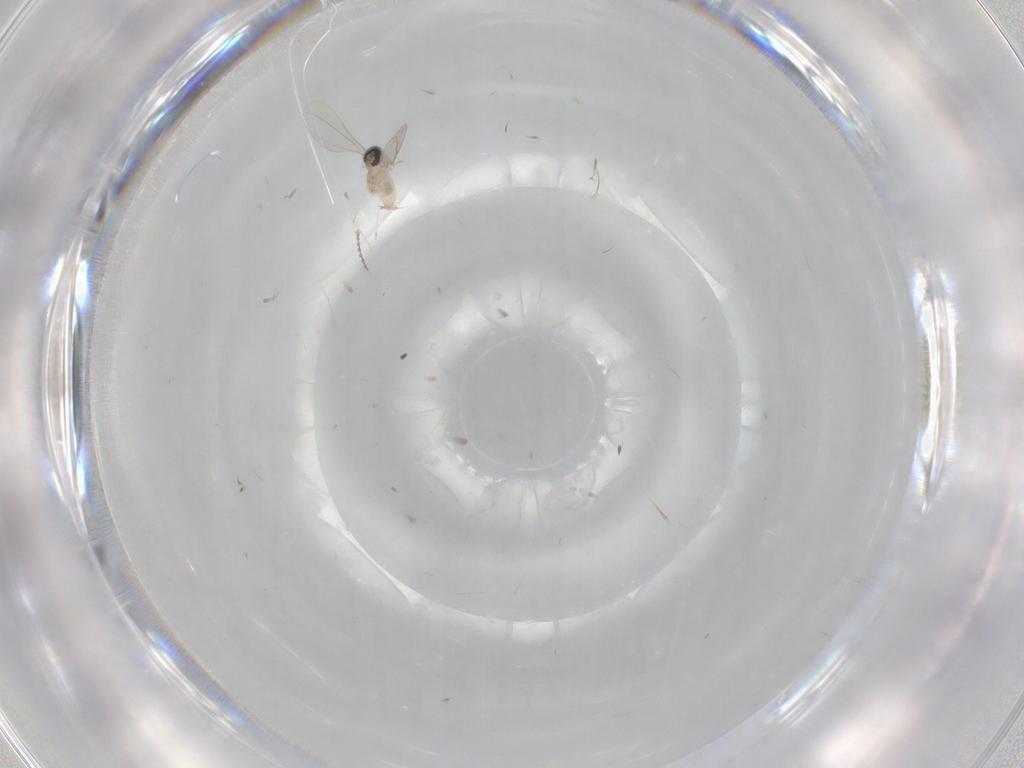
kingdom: Animalia
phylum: Arthropoda
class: Insecta
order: Diptera
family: Cecidomyiidae
